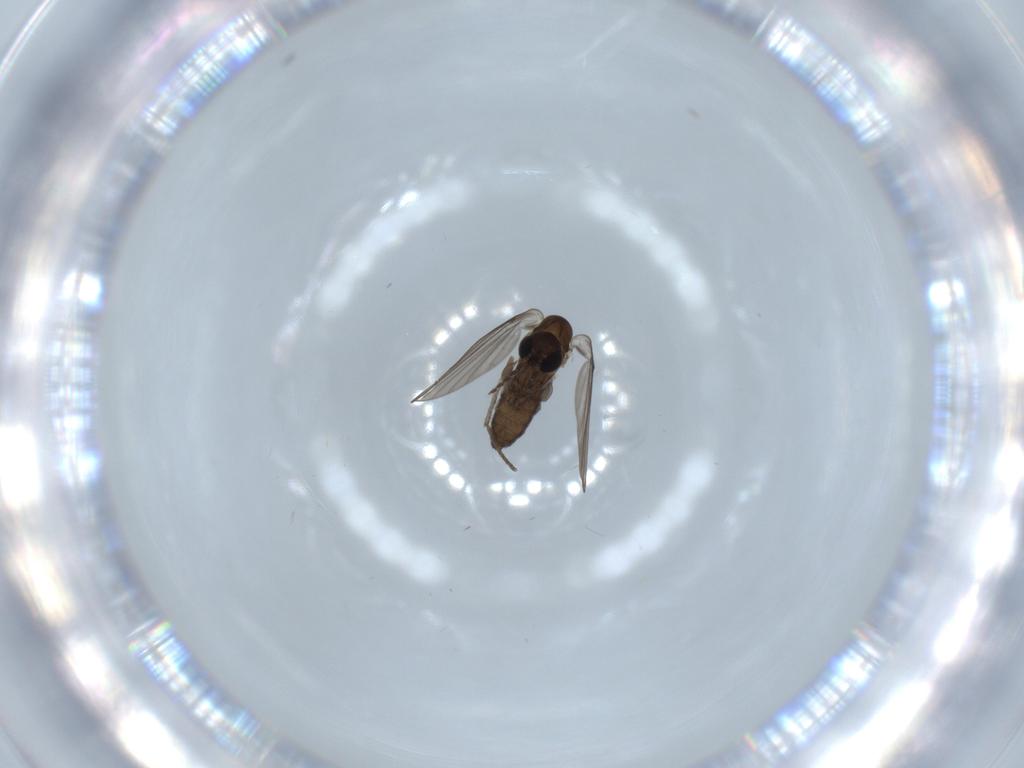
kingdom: Animalia
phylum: Arthropoda
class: Insecta
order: Diptera
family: Psychodidae
